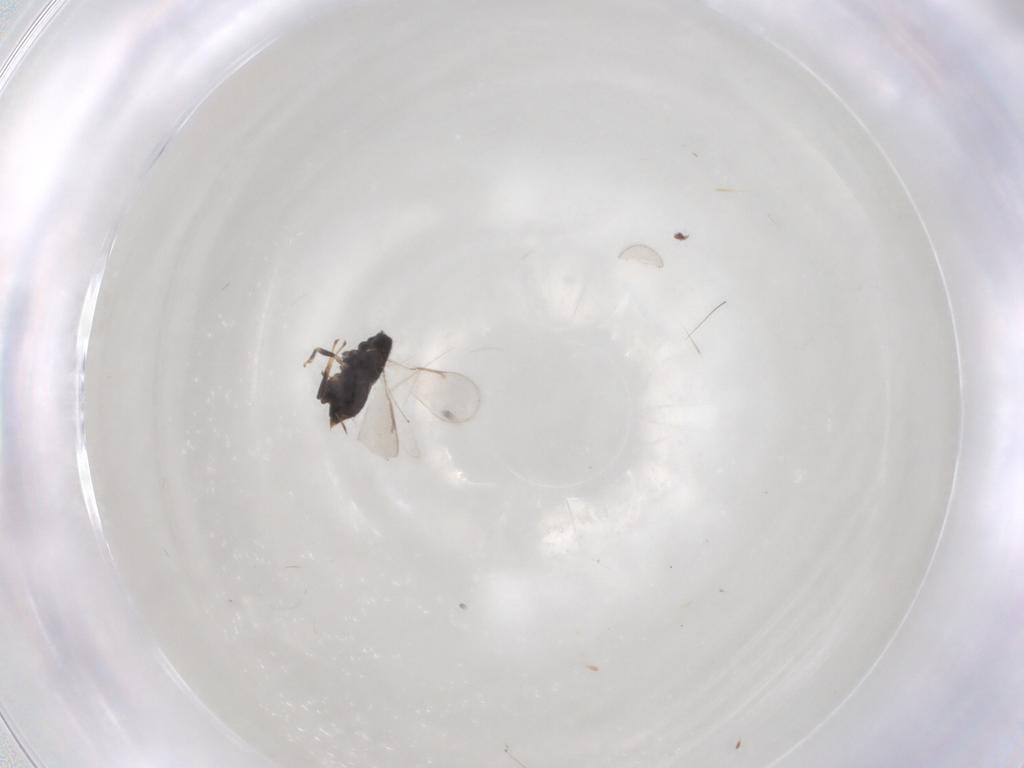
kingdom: Animalia
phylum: Arthropoda
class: Insecta
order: Hymenoptera
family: Mymaridae
